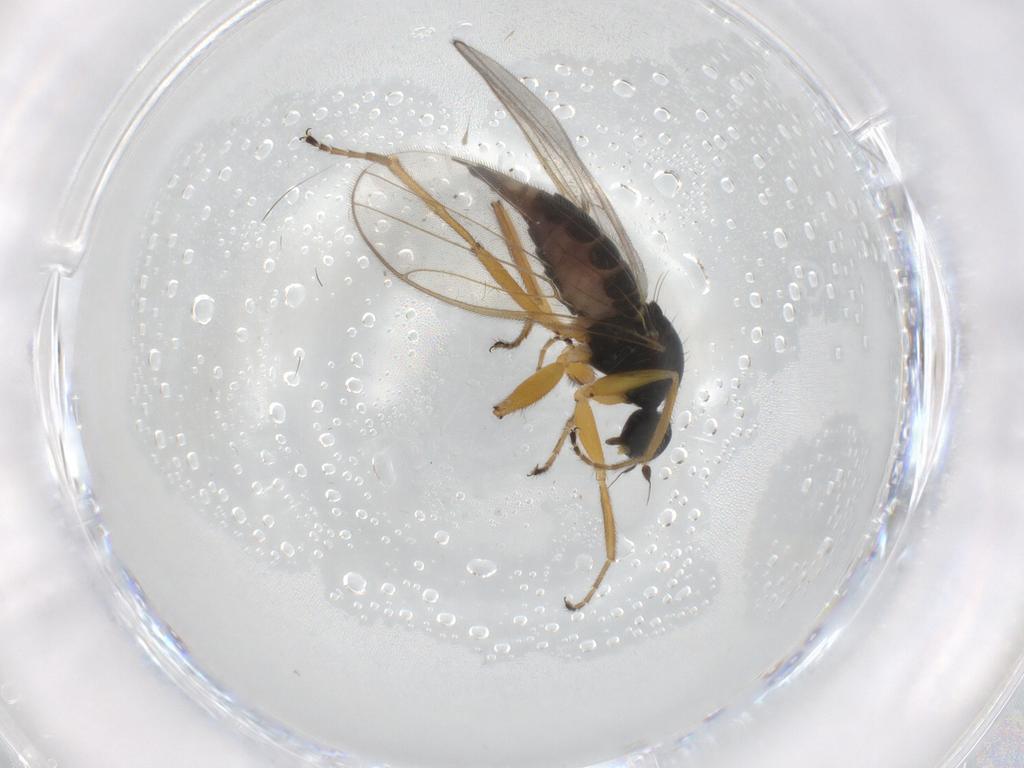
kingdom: Animalia
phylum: Arthropoda
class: Insecta
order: Diptera
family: Hybotidae
